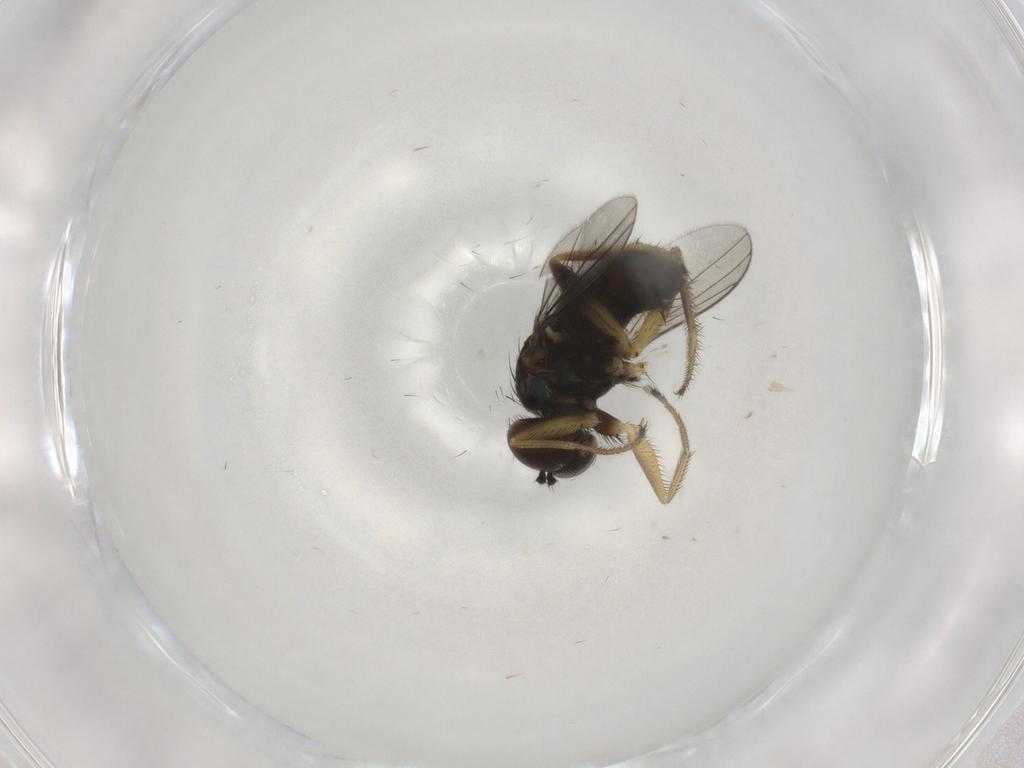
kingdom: Animalia
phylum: Arthropoda
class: Insecta
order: Diptera
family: Dolichopodidae
